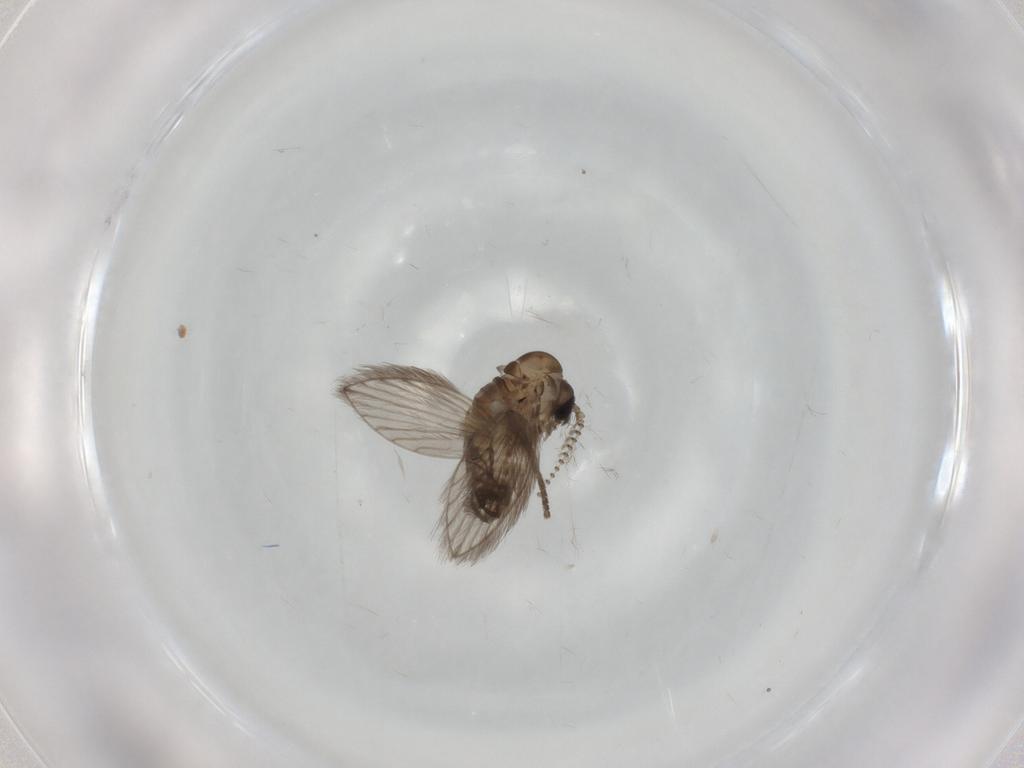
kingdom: Animalia
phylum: Arthropoda
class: Insecta
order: Diptera
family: Psychodidae
